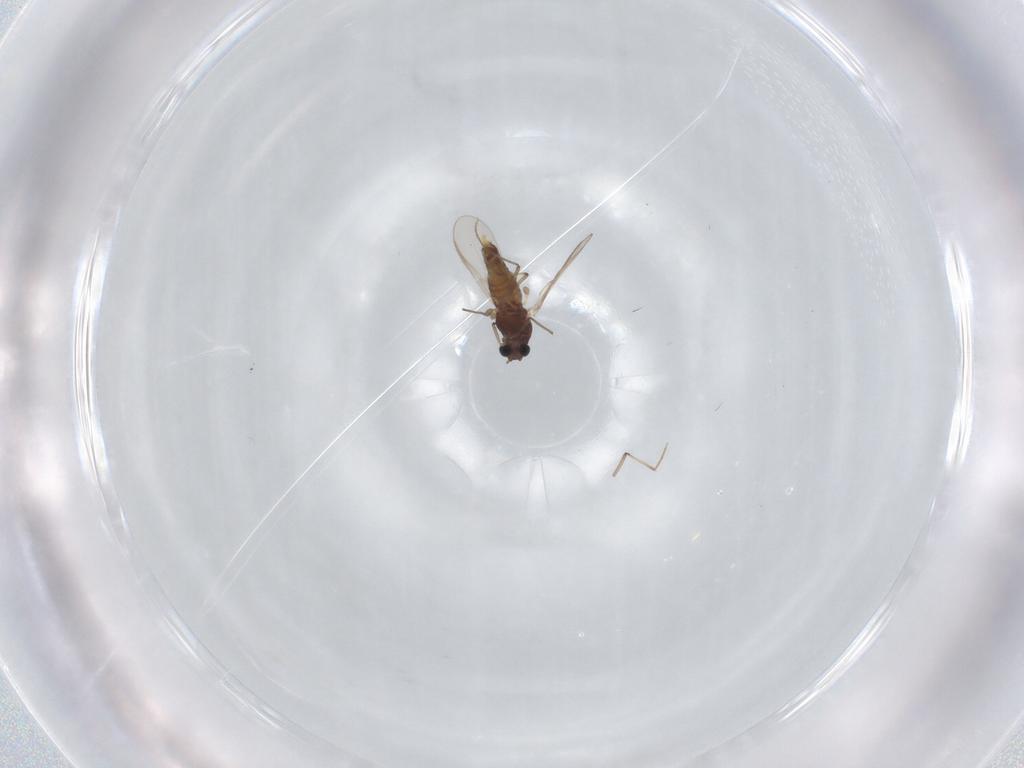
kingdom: Animalia
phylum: Arthropoda
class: Insecta
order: Diptera
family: Chironomidae
